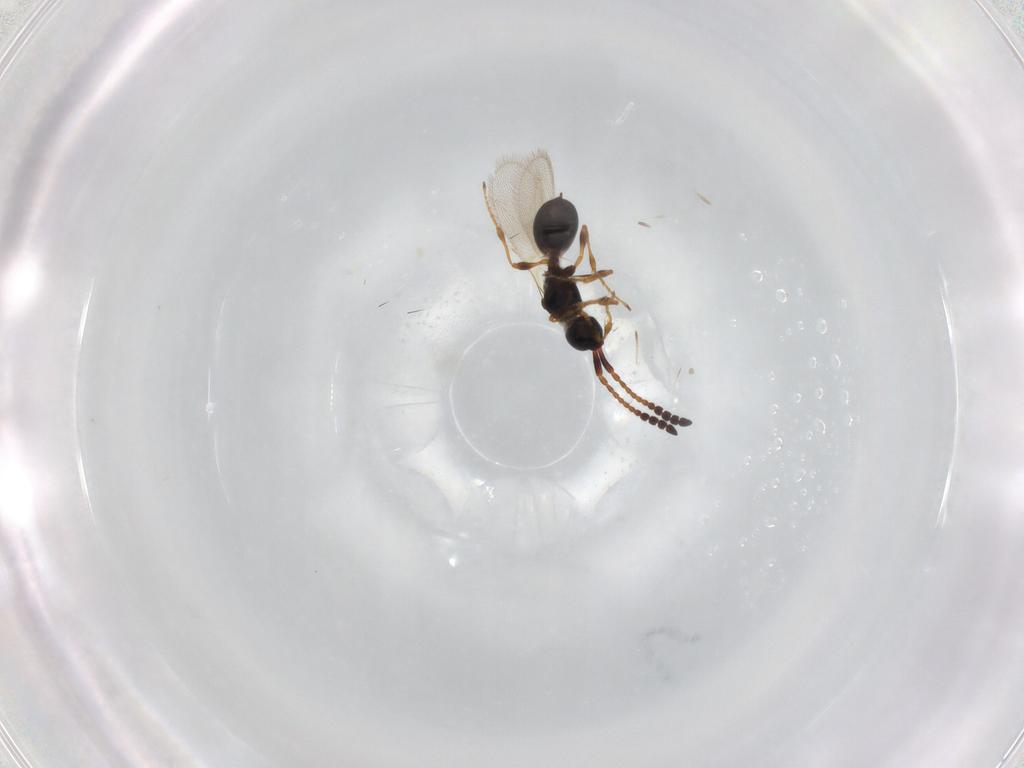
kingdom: Animalia
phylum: Arthropoda
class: Insecta
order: Hymenoptera
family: Diapriidae
